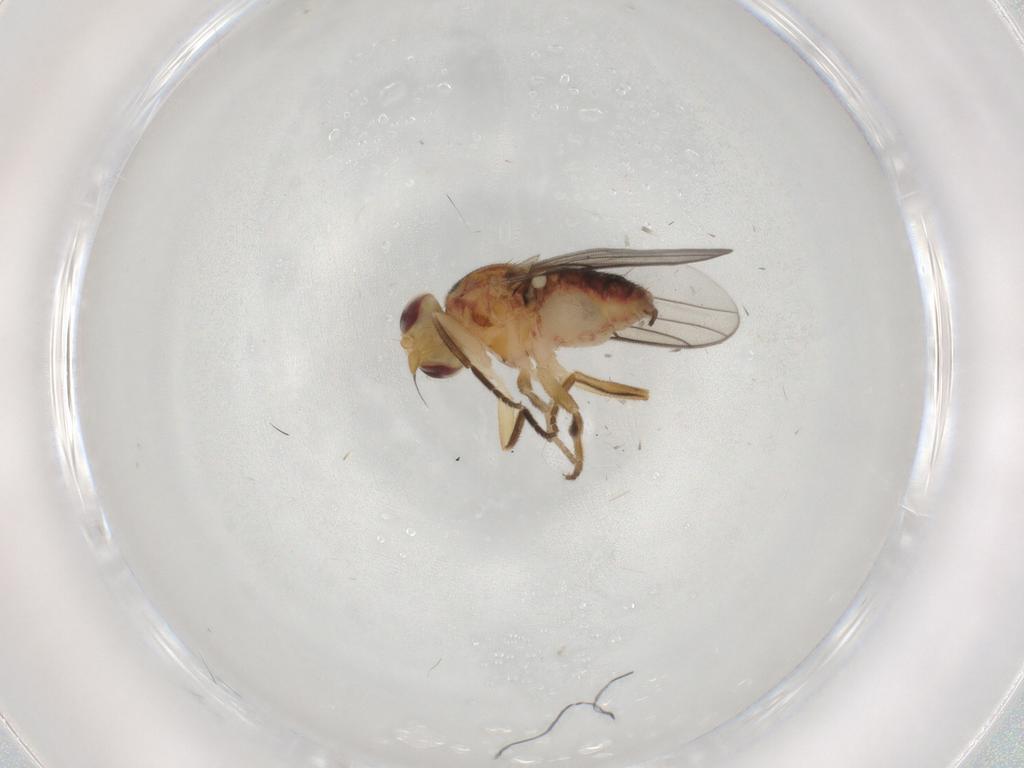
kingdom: Animalia
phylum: Arthropoda
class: Insecta
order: Diptera
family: Chloropidae
